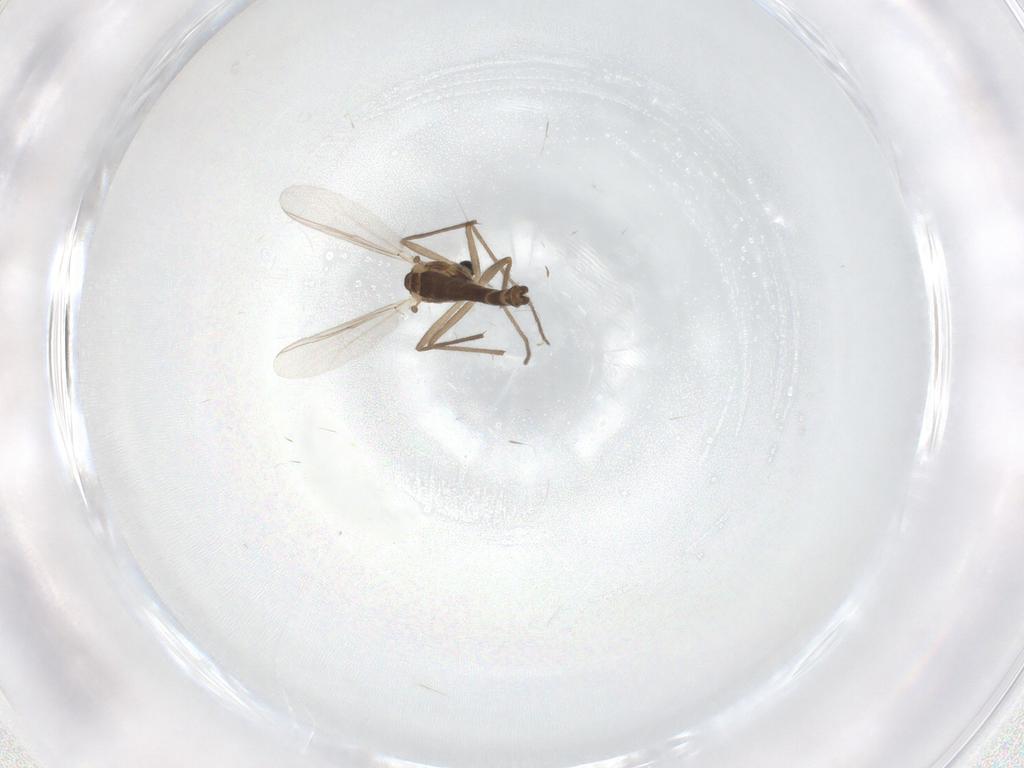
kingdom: Animalia
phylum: Arthropoda
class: Insecta
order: Diptera
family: Chironomidae
